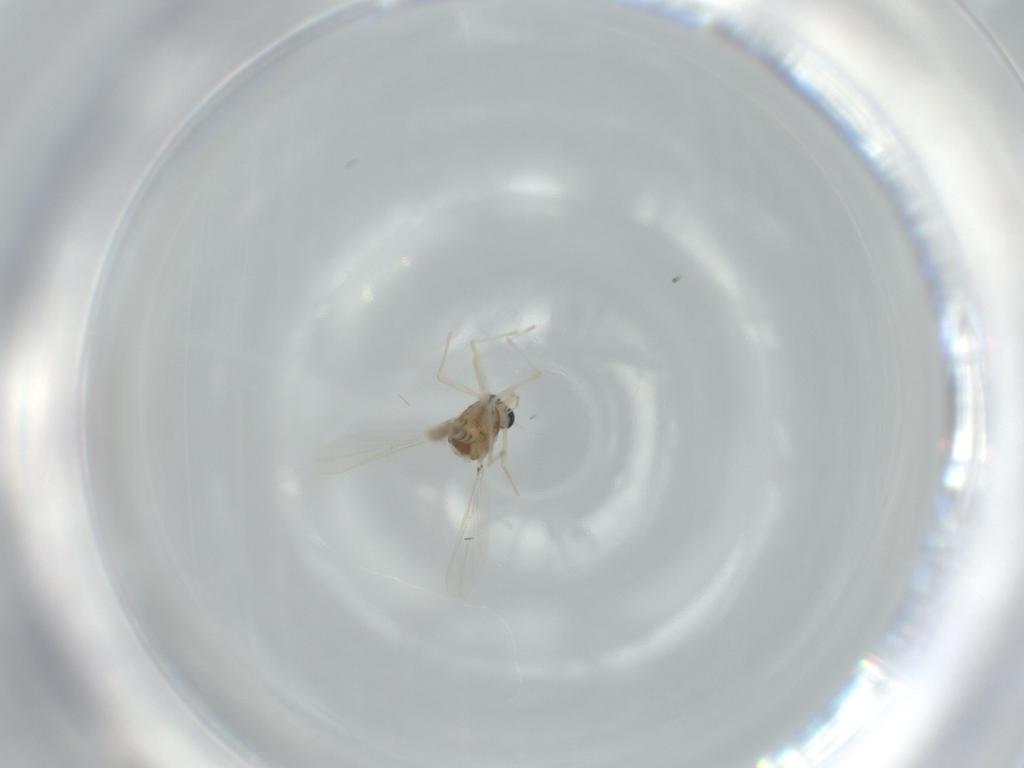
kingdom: Animalia
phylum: Arthropoda
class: Insecta
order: Diptera
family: Chironomidae
